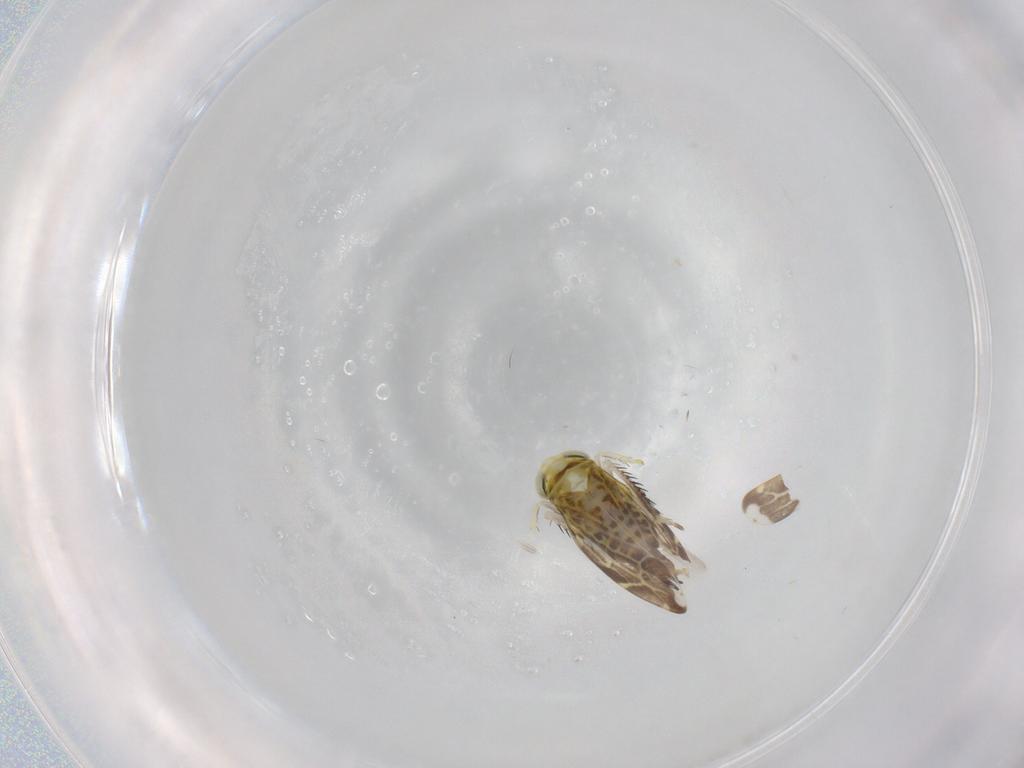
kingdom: Animalia
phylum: Arthropoda
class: Insecta
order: Hemiptera
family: Cicadellidae
